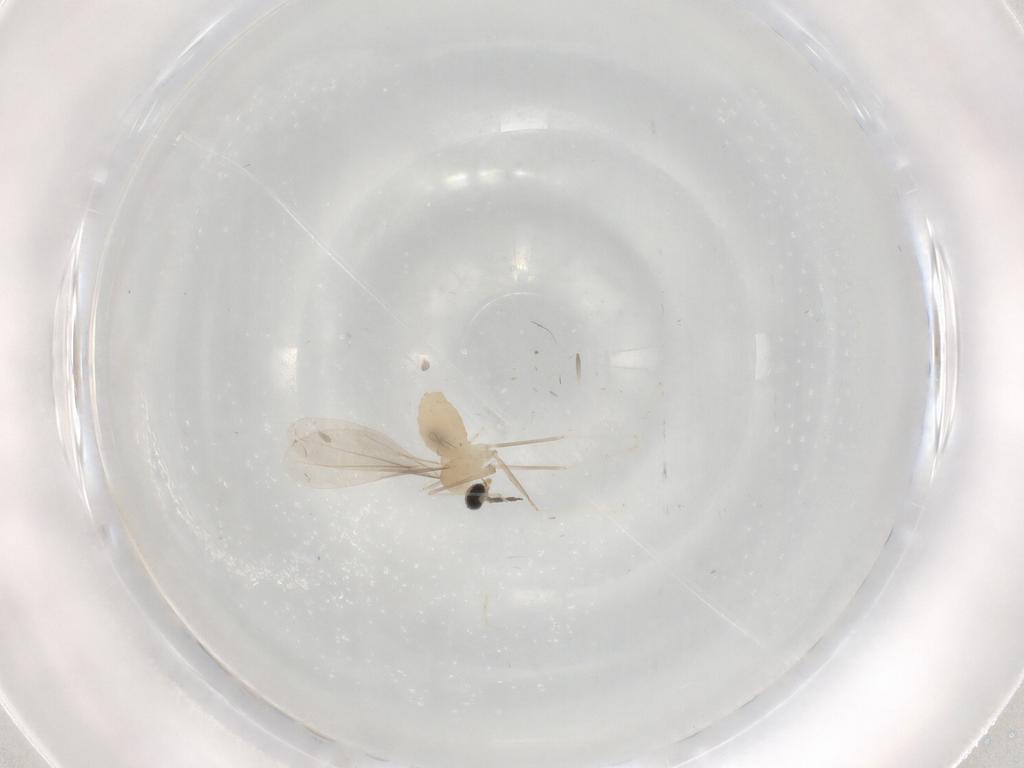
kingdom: Animalia
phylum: Arthropoda
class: Insecta
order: Diptera
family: Cecidomyiidae
